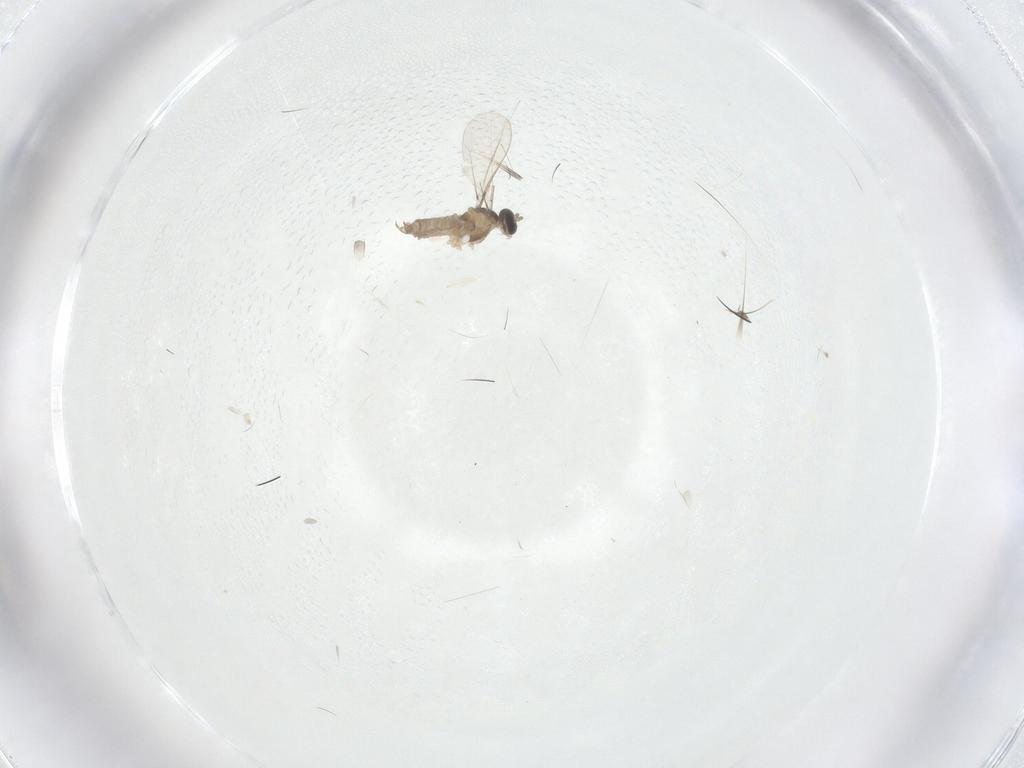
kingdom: Animalia
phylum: Arthropoda
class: Insecta
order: Diptera
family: Cecidomyiidae
